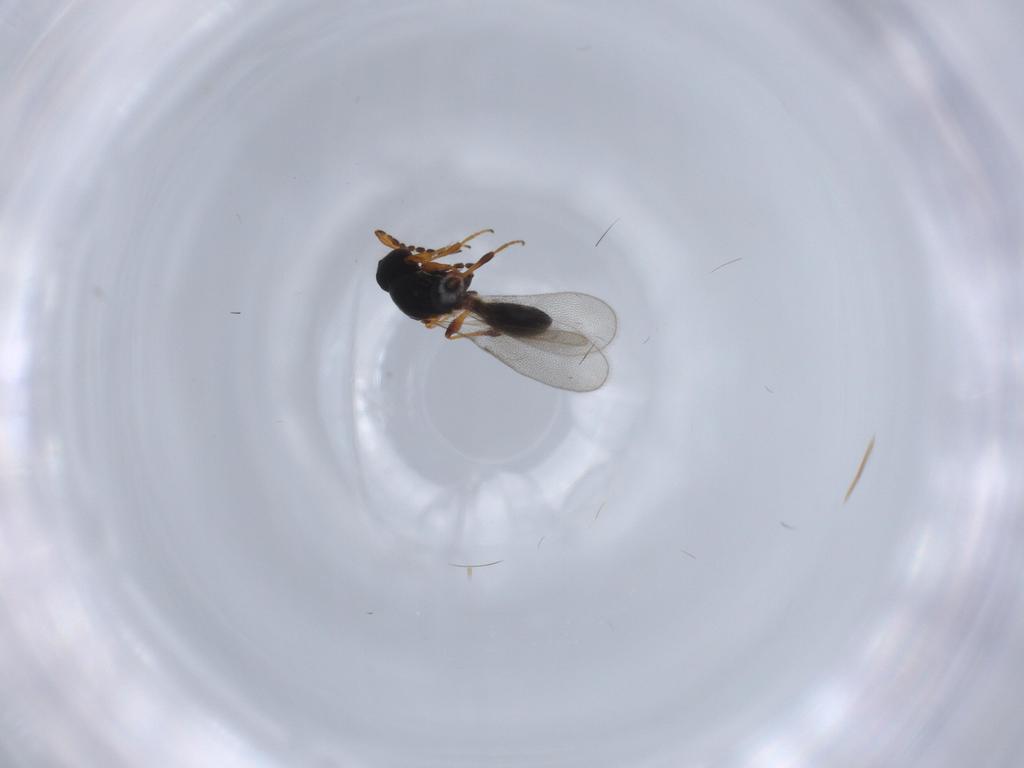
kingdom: Animalia
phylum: Arthropoda
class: Insecta
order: Hymenoptera
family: Platygastridae
